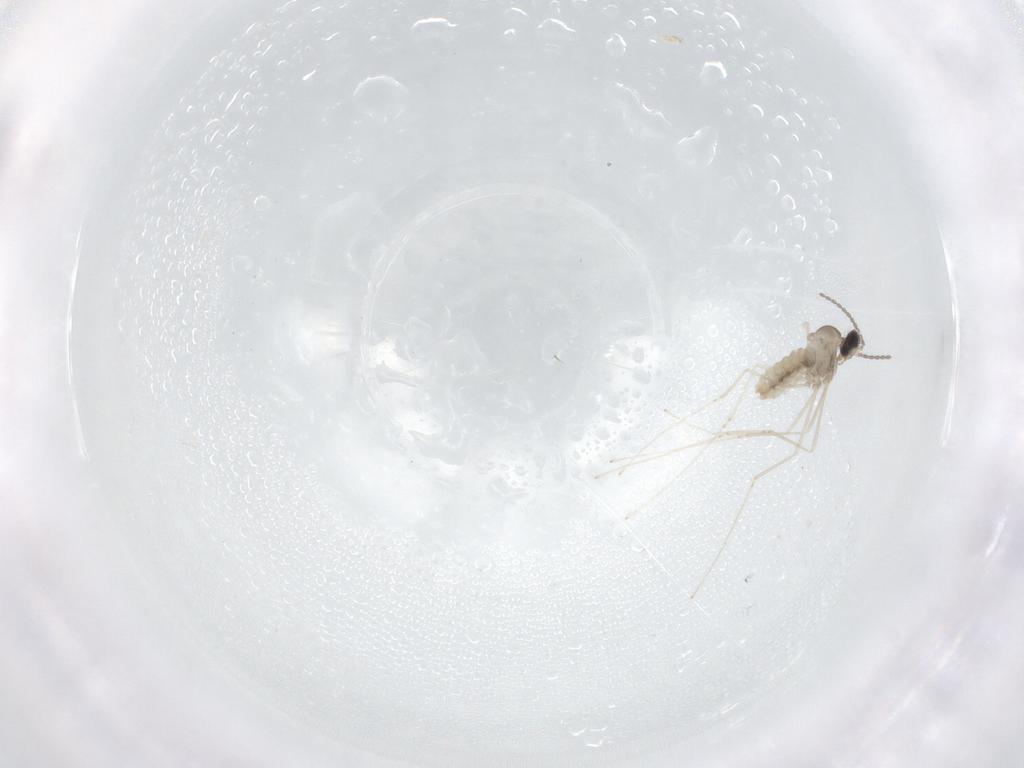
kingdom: Animalia
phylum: Arthropoda
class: Insecta
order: Diptera
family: Cecidomyiidae
